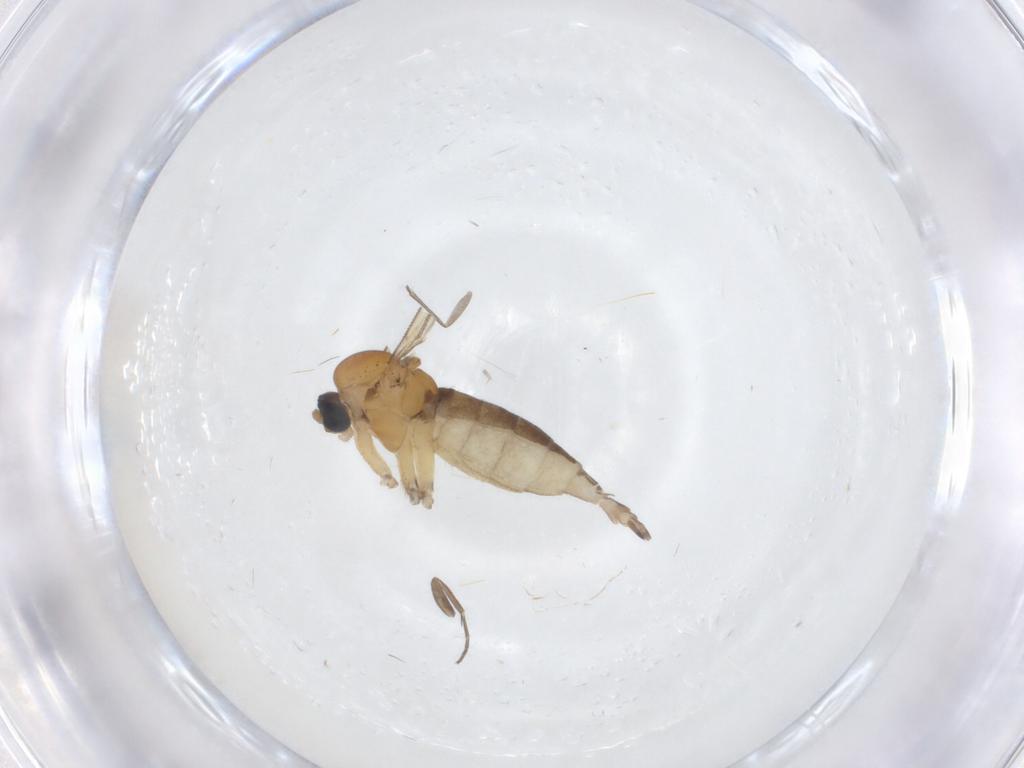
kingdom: Animalia
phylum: Arthropoda
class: Insecta
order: Diptera
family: Sciaridae
